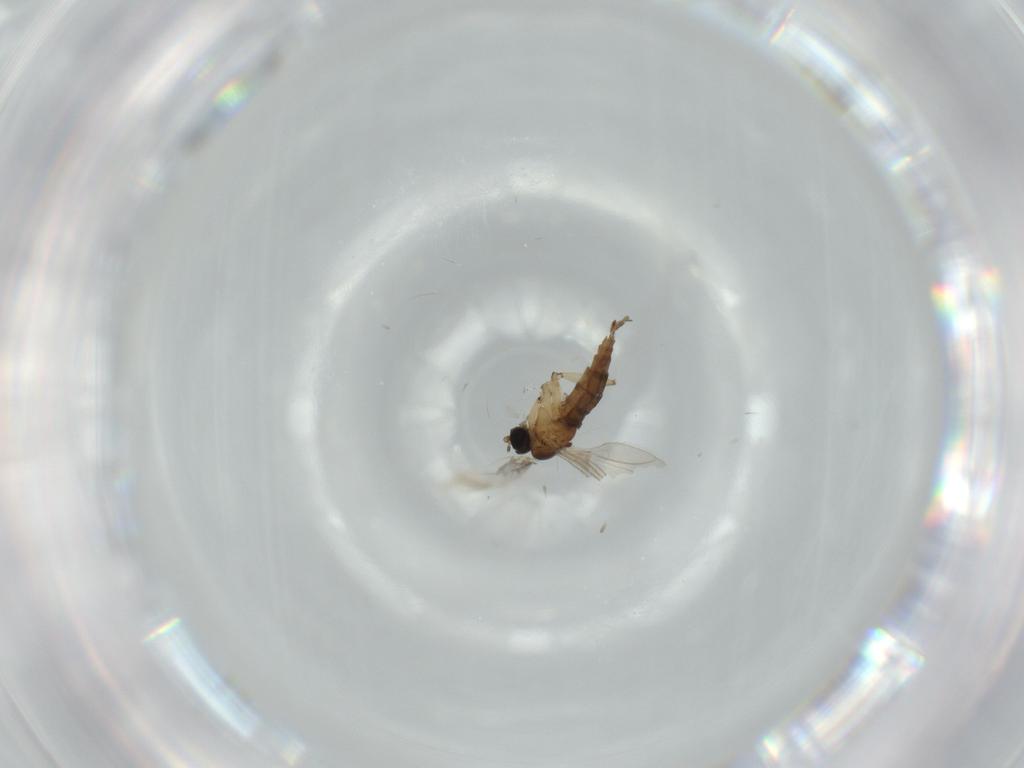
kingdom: Animalia
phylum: Arthropoda
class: Insecta
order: Diptera
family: Sciaridae
